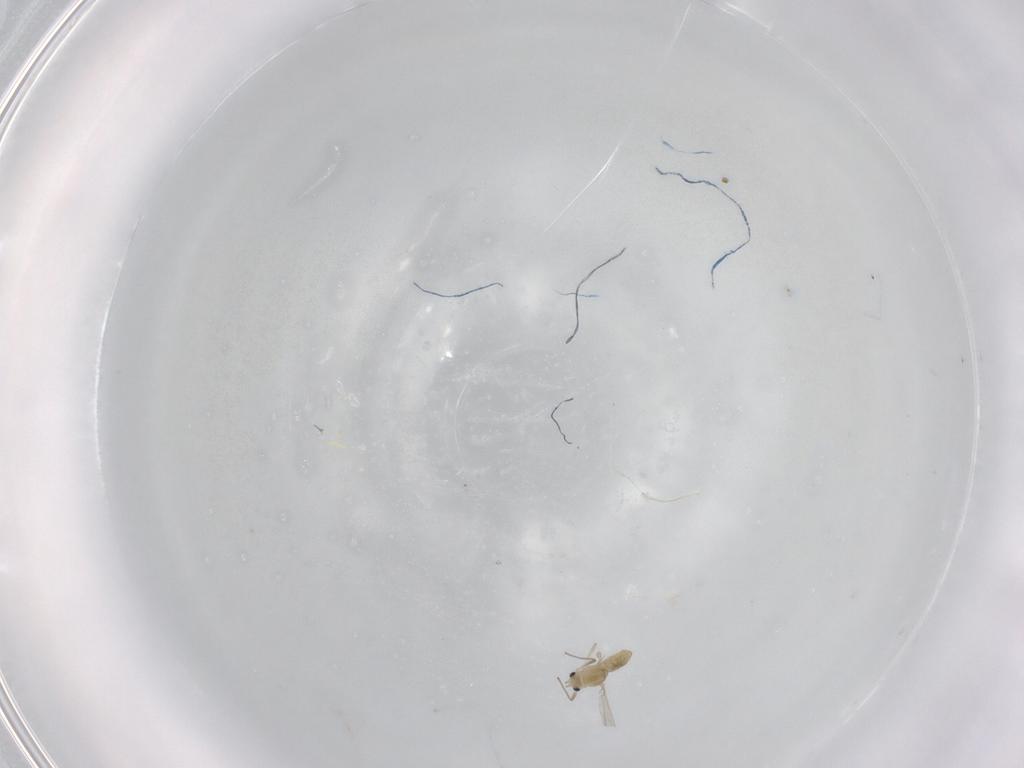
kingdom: Animalia
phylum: Arthropoda
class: Insecta
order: Diptera
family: Chironomidae
